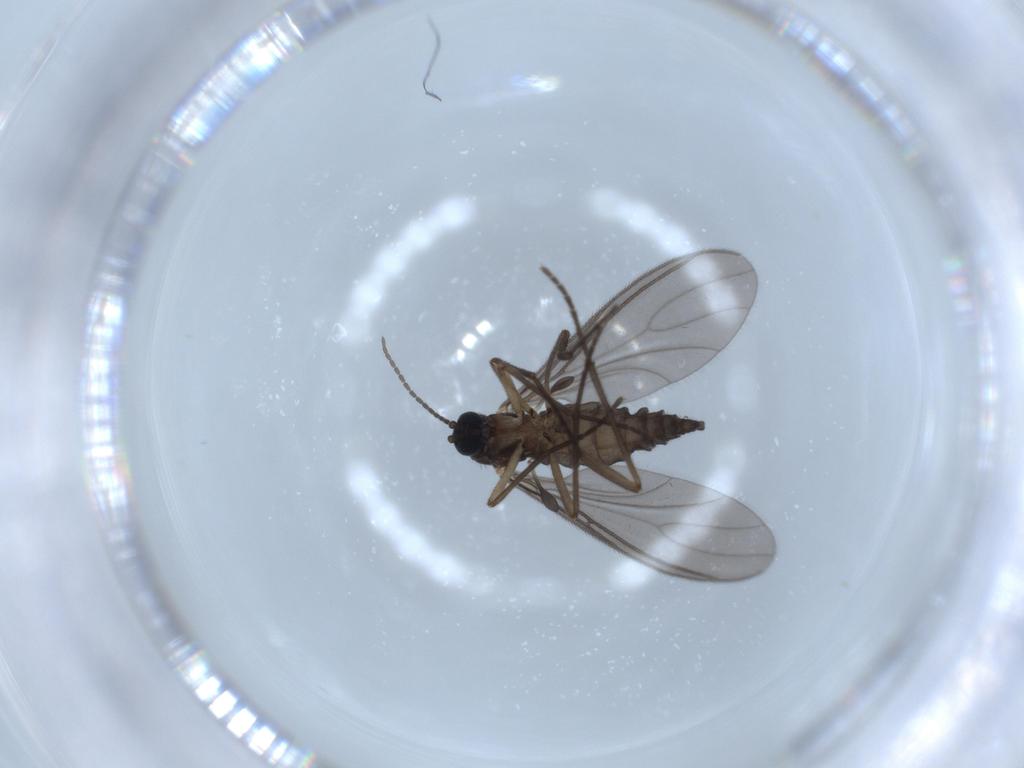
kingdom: Animalia
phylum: Arthropoda
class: Insecta
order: Diptera
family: Sciaridae
